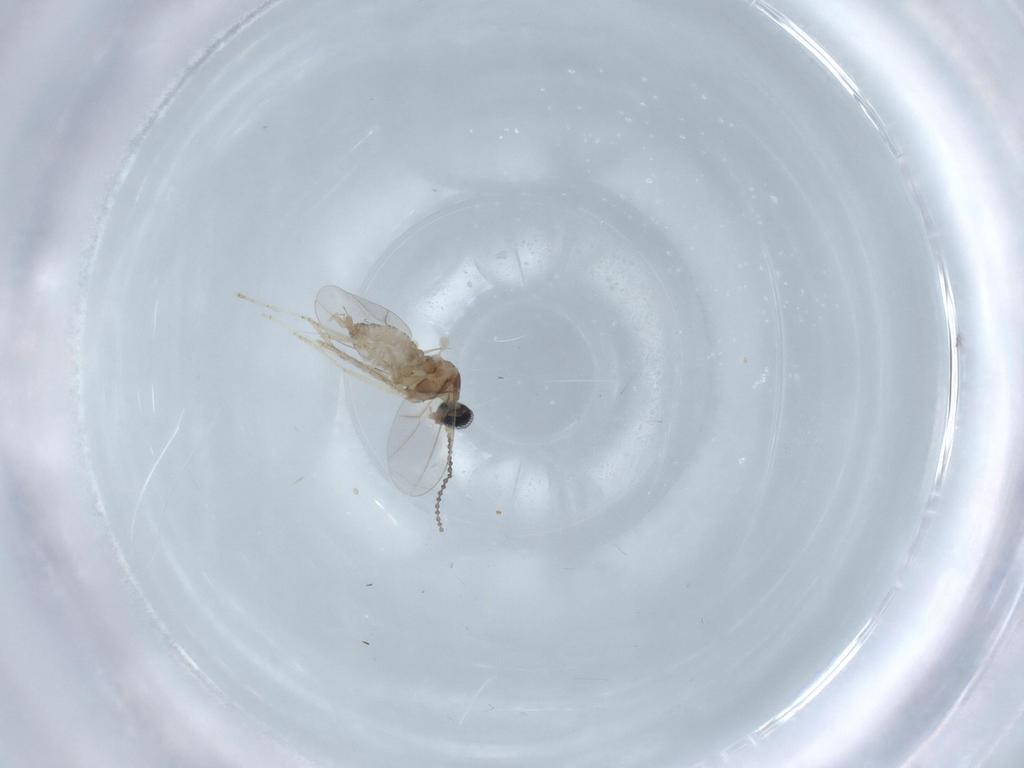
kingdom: Animalia
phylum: Arthropoda
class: Insecta
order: Diptera
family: Cecidomyiidae
